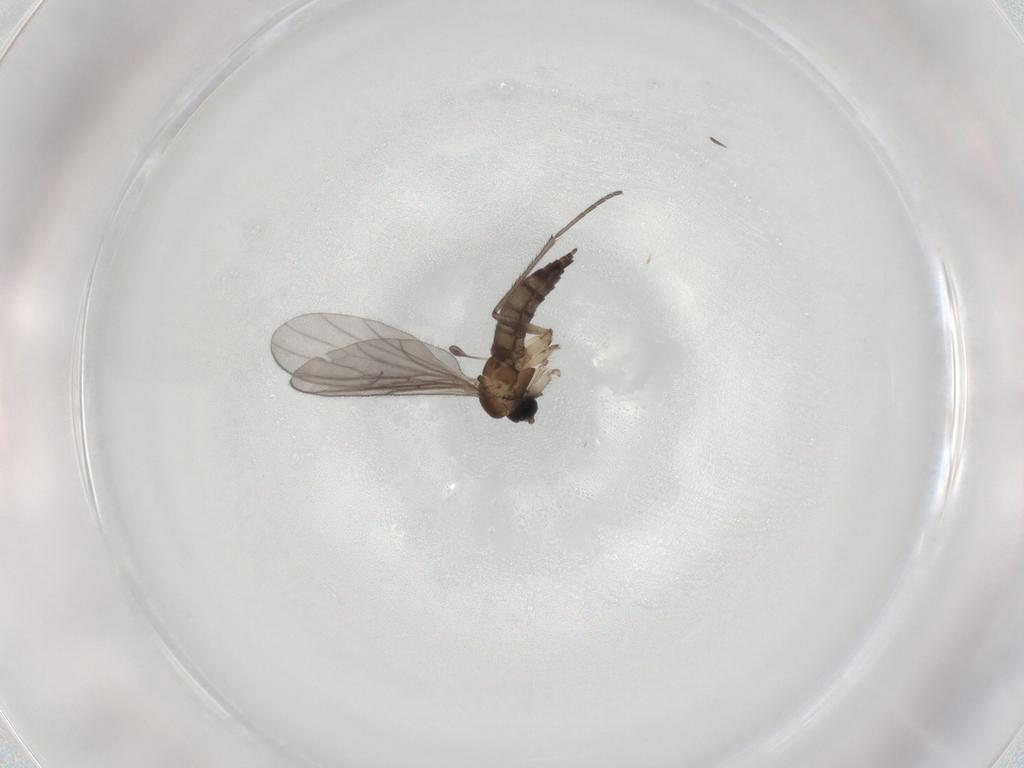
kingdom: Animalia
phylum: Arthropoda
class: Insecta
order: Diptera
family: Sciaridae
